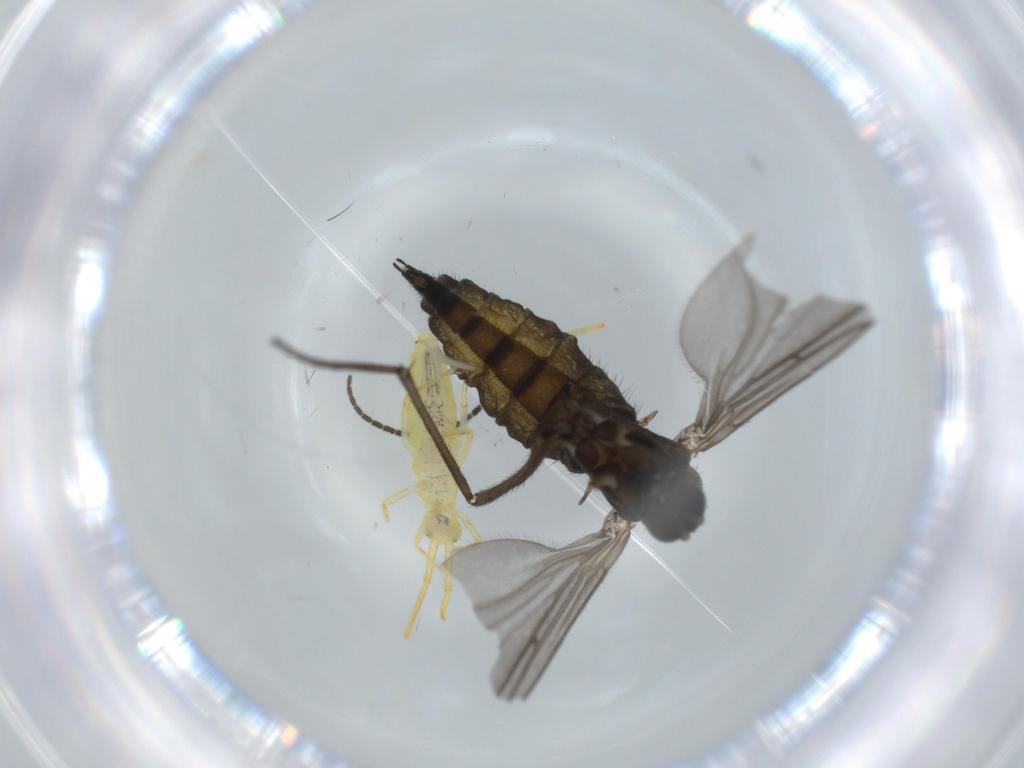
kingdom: Animalia
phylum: Arthropoda
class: Insecta
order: Diptera
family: Sciaridae
